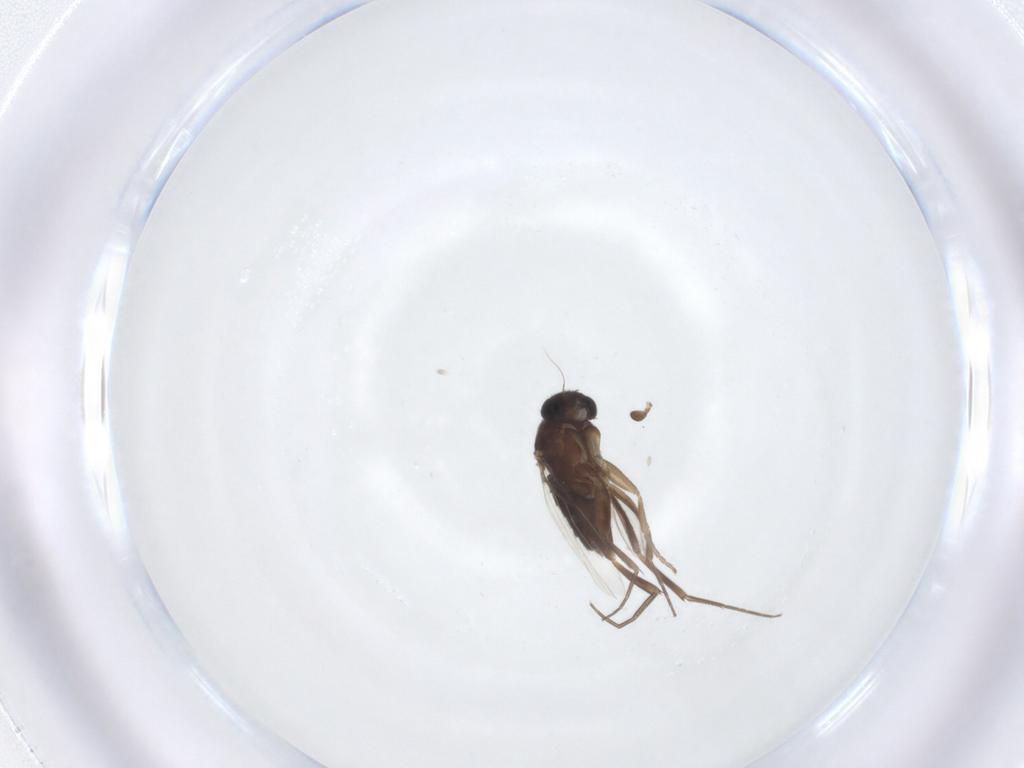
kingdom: Animalia
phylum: Arthropoda
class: Insecta
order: Diptera
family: Phoridae
